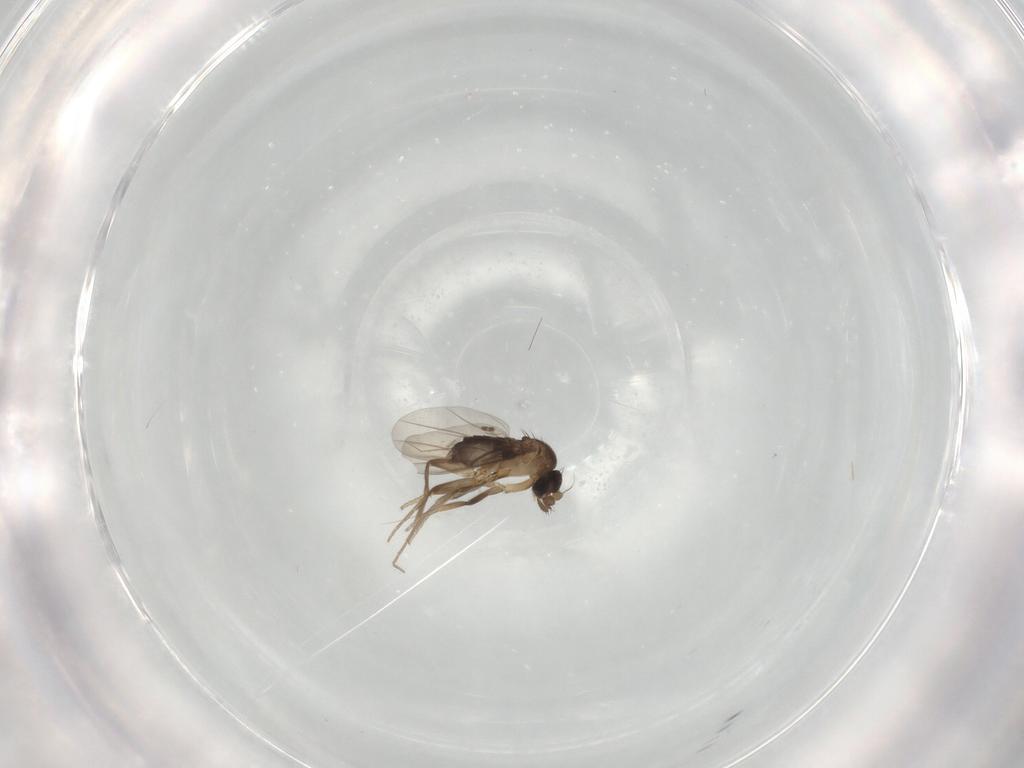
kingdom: Animalia
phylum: Arthropoda
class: Insecta
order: Diptera
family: Phoridae
